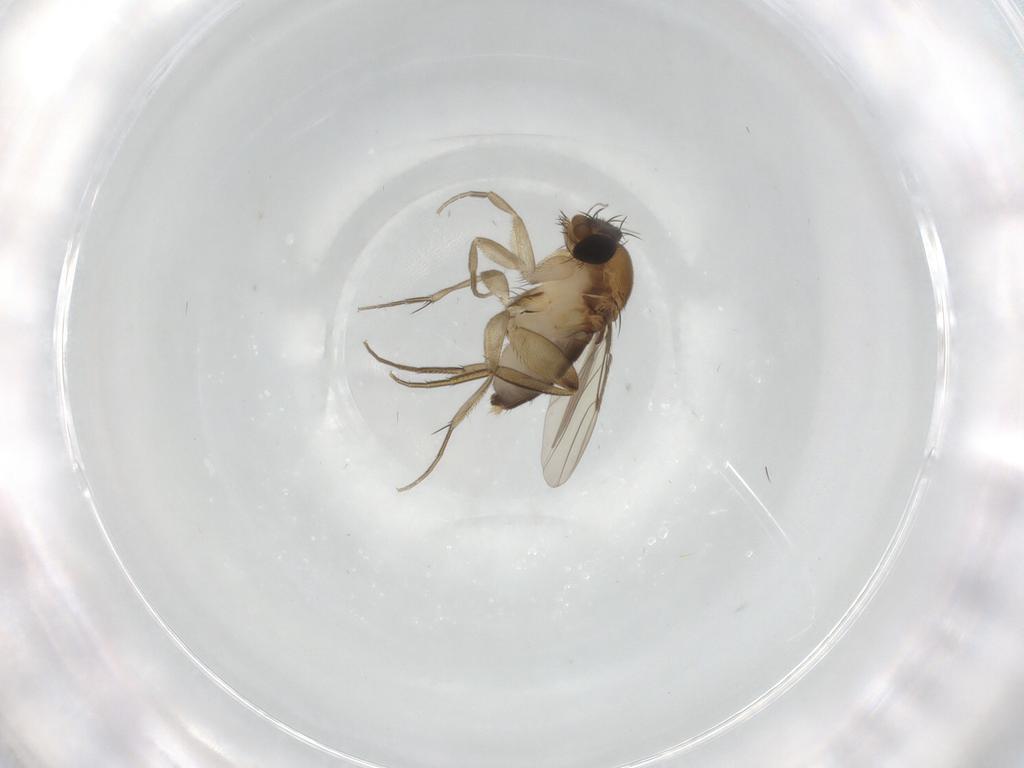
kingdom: Animalia
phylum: Arthropoda
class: Insecta
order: Diptera
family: Phoridae
